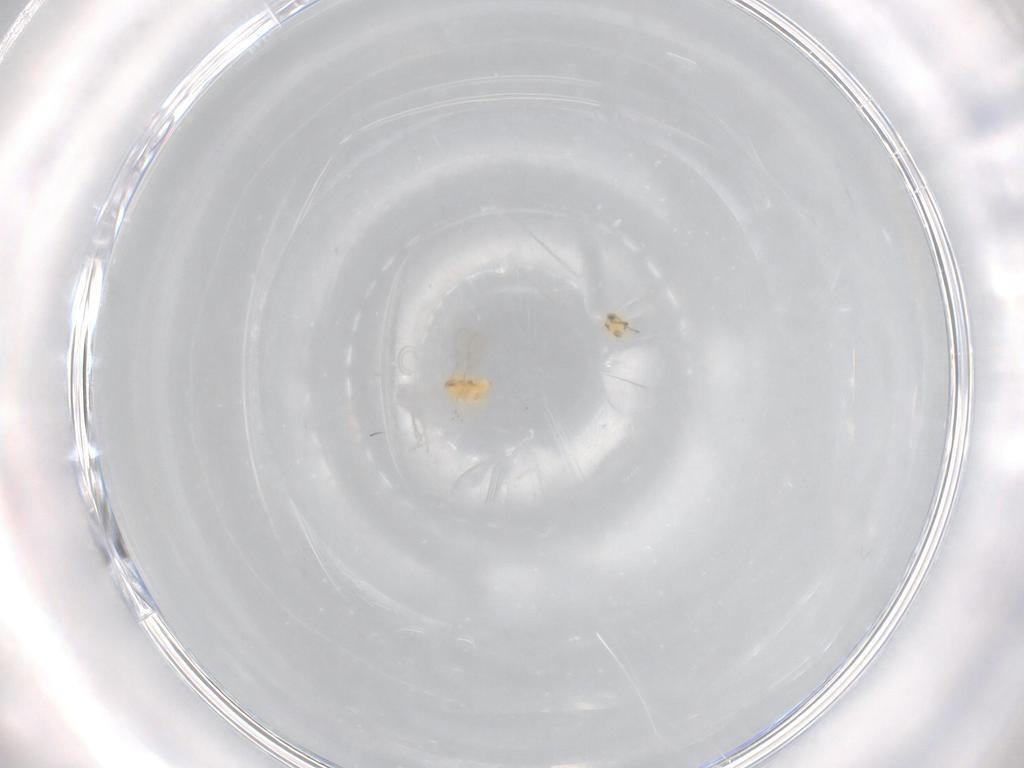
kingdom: Animalia
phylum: Arthropoda
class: Insecta
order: Hymenoptera
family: Aphelinidae
